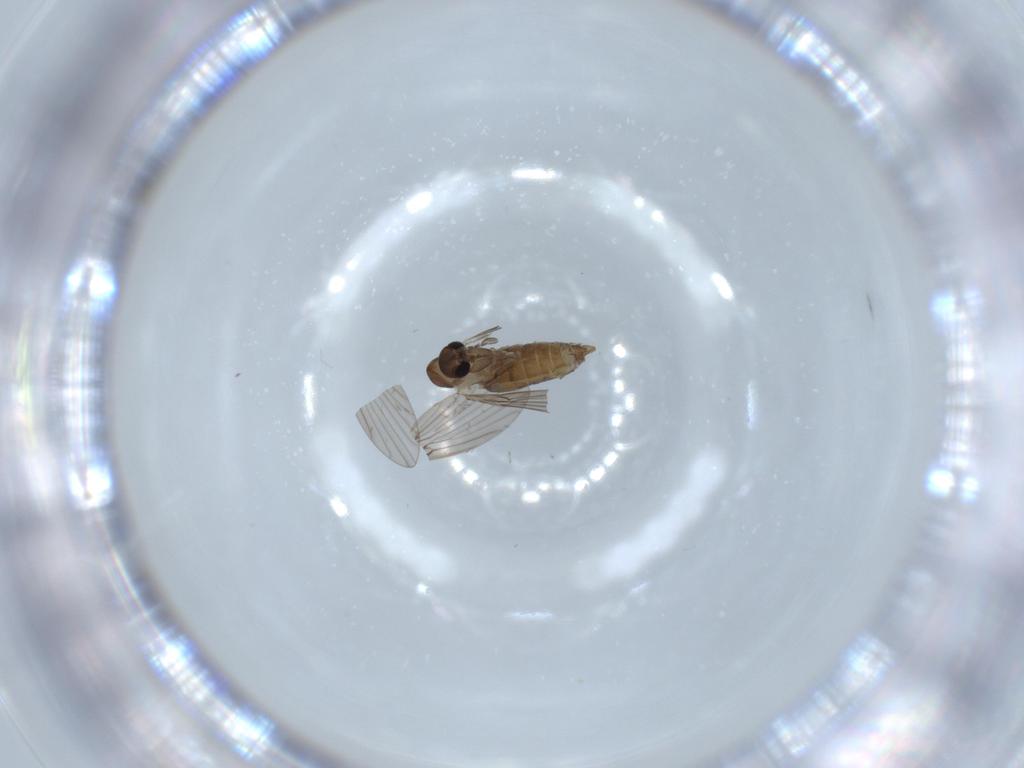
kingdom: Animalia
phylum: Arthropoda
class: Insecta
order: Diptera
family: Psychodidae
